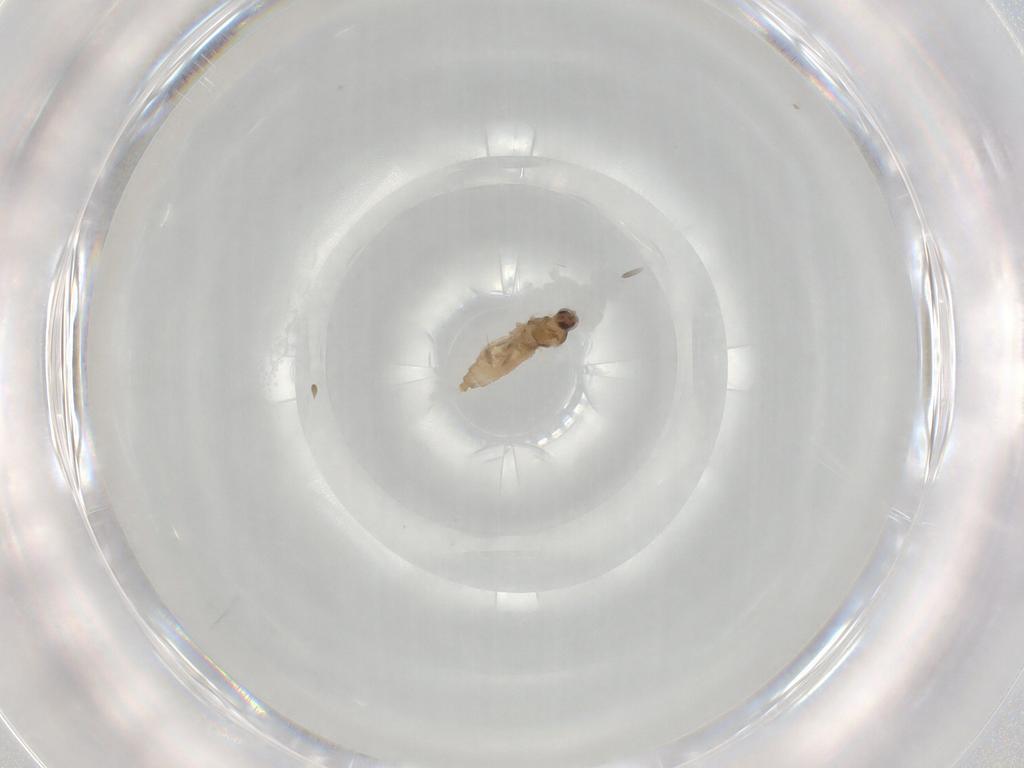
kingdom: Animalia
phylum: Arthropoda
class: Insecta
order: Diptera
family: Cecidomyiidae
